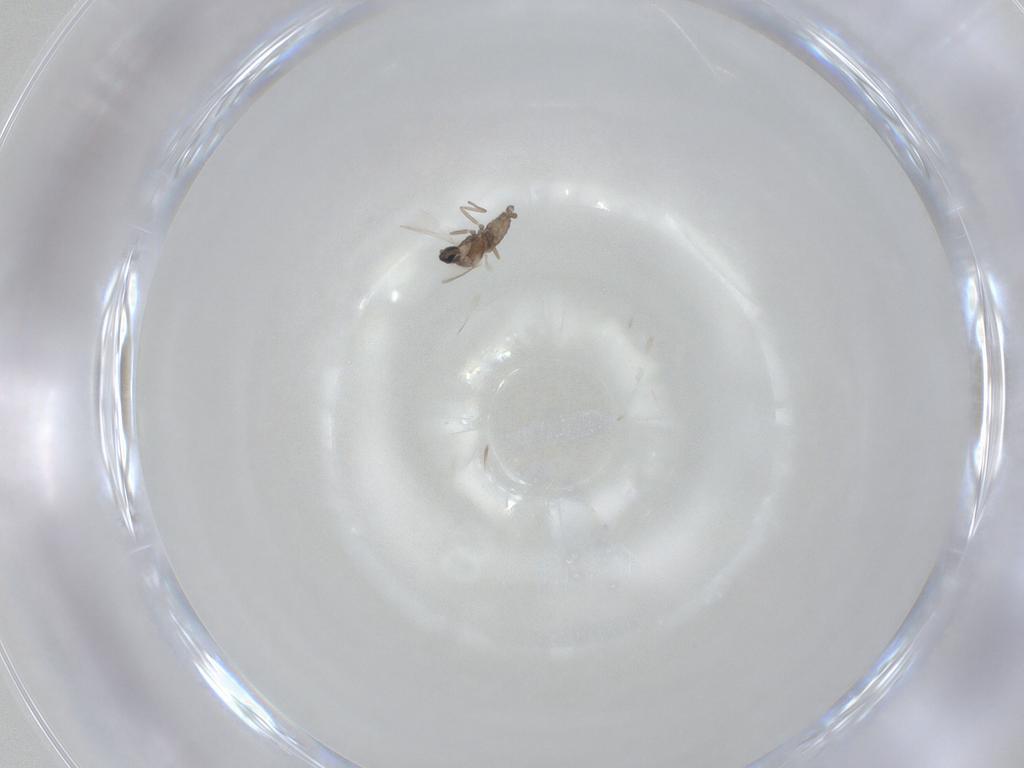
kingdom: Animalia
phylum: Arthropoda
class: Insecta
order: Diptera
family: Cecidomyiidae
